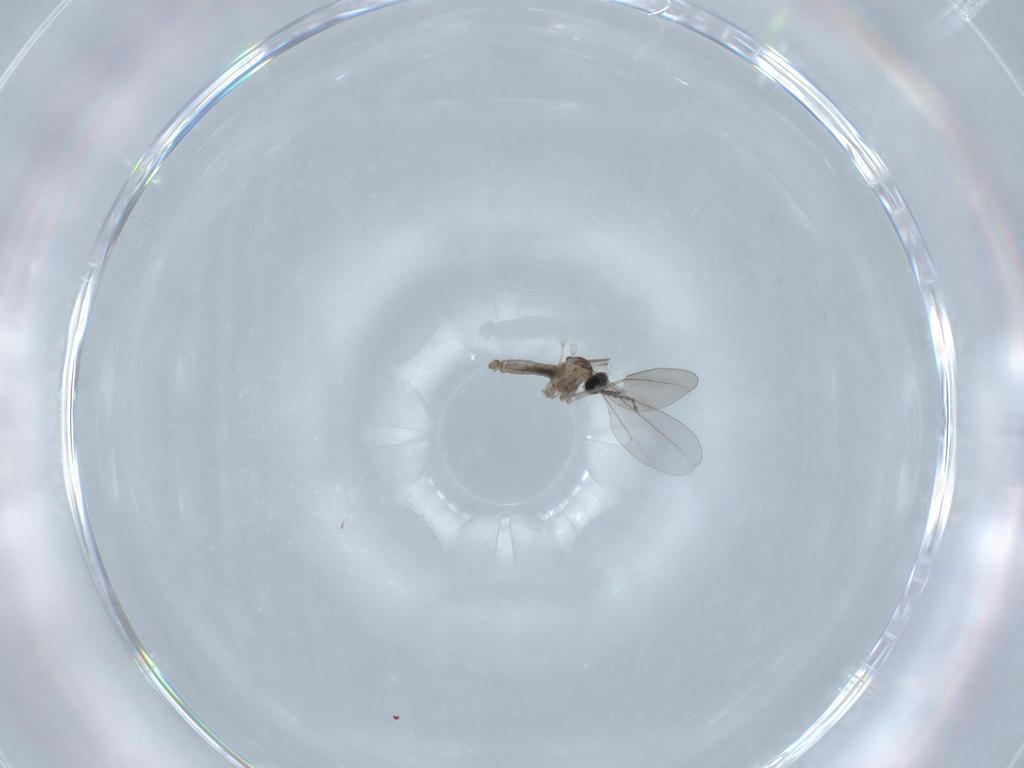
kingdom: Animalia
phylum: Arthropoda
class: Insecta
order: Diptera
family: Cecidomyiidae
